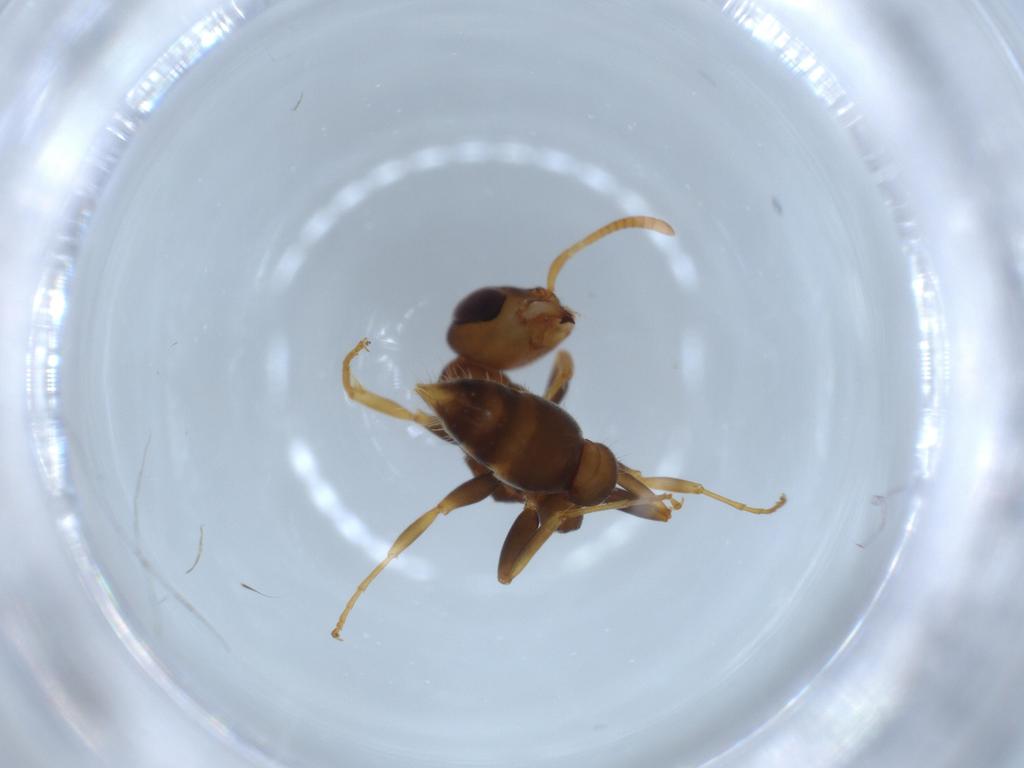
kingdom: Animalia
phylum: Arthropoda
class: Insecta
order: Hymenoptera
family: Formicidae
